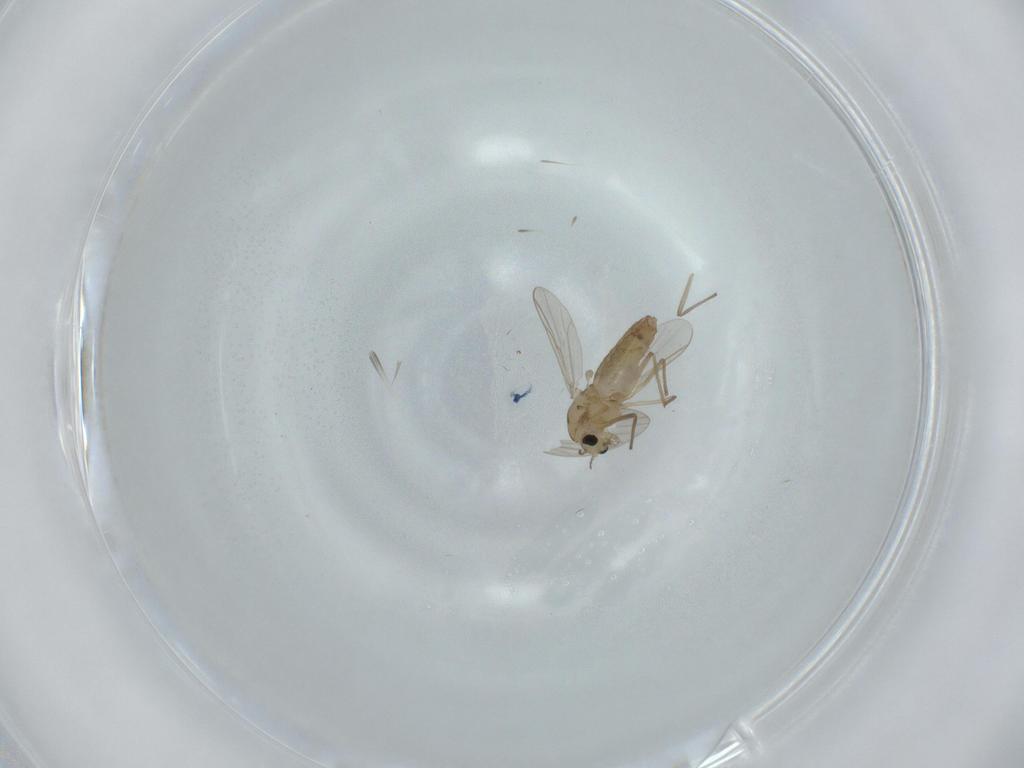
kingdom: Animalia
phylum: Arthropoda
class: Insecta
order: Diptera
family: Chironomidae
